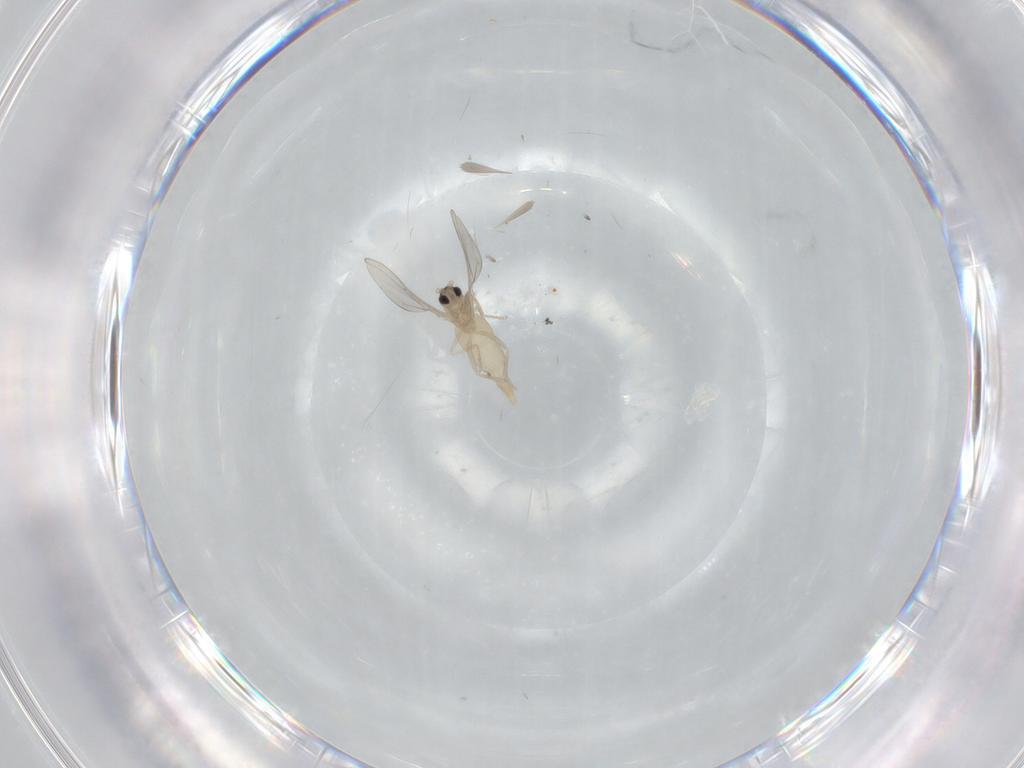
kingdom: Animalia
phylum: Arthropoda
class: Insecta
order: Diptera
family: Cecidomyiidae
